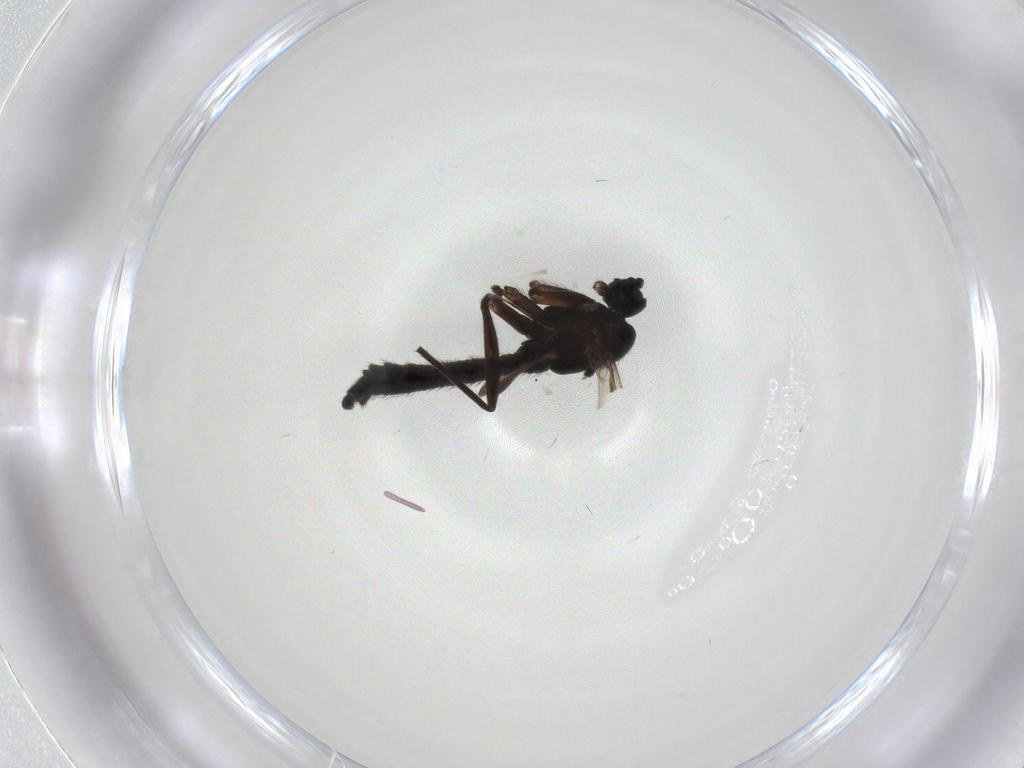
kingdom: Animalia
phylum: Arthropoda
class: Insecta
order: Diptera
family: Sciaridae
